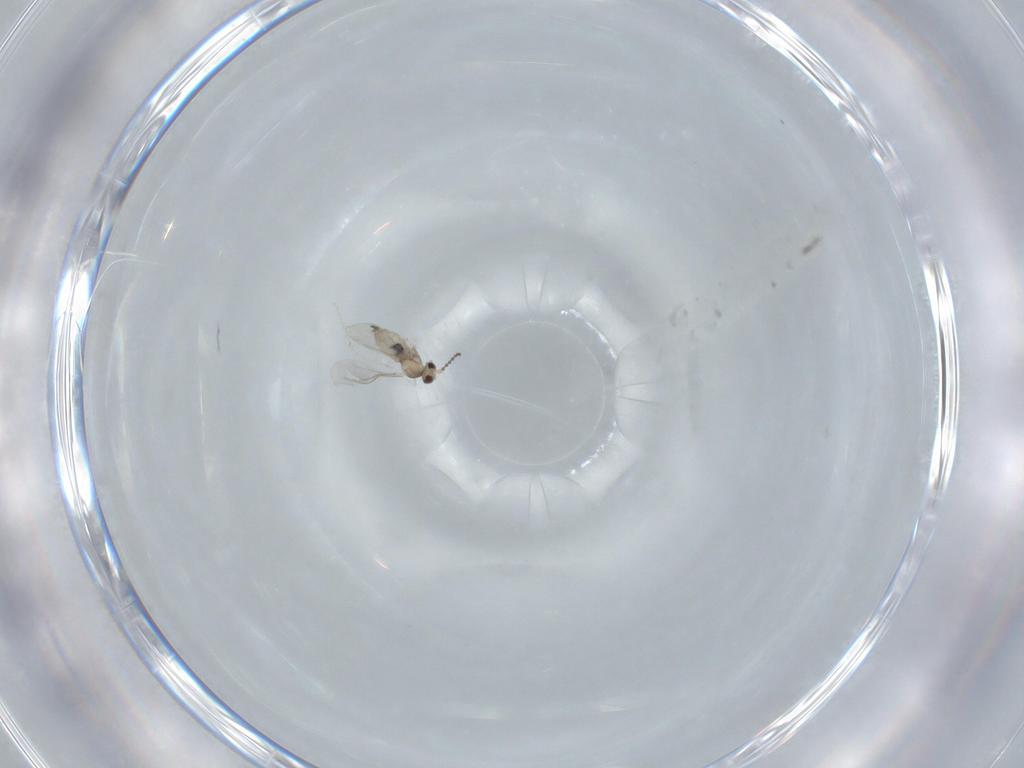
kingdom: Animalia
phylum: Arthropoda
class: Insecta
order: Diptera
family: Cecidomyiidae
